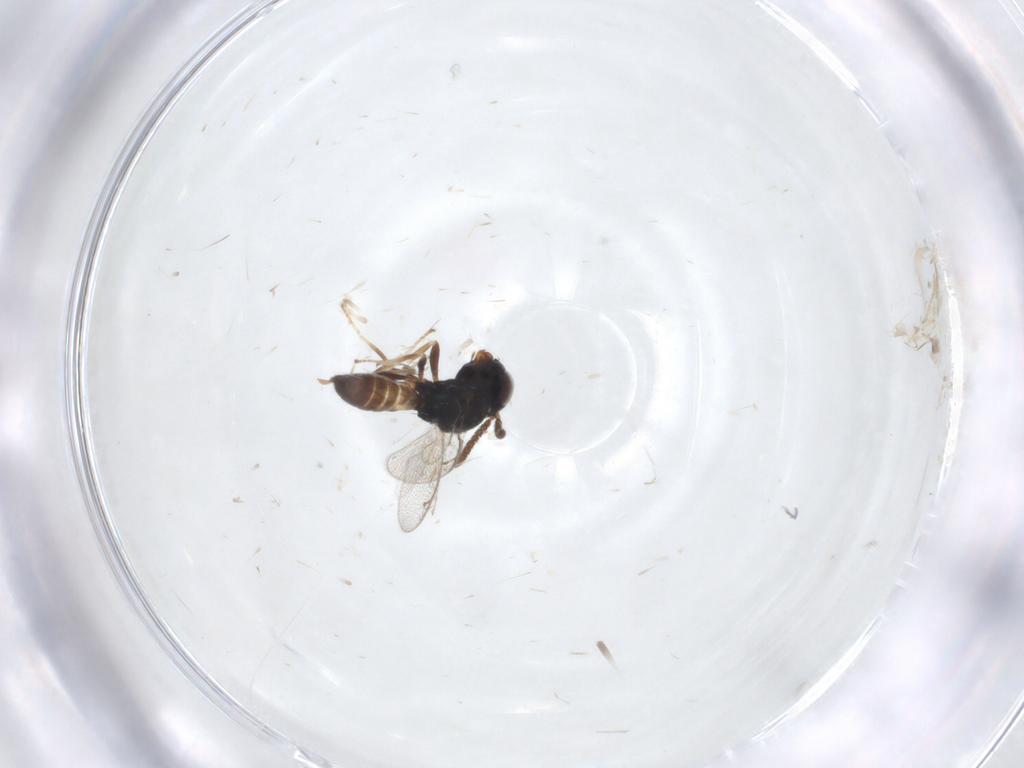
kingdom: Animalia
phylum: Arthropoda
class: Insecta
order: Hymenoptera
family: Pteromalidae
